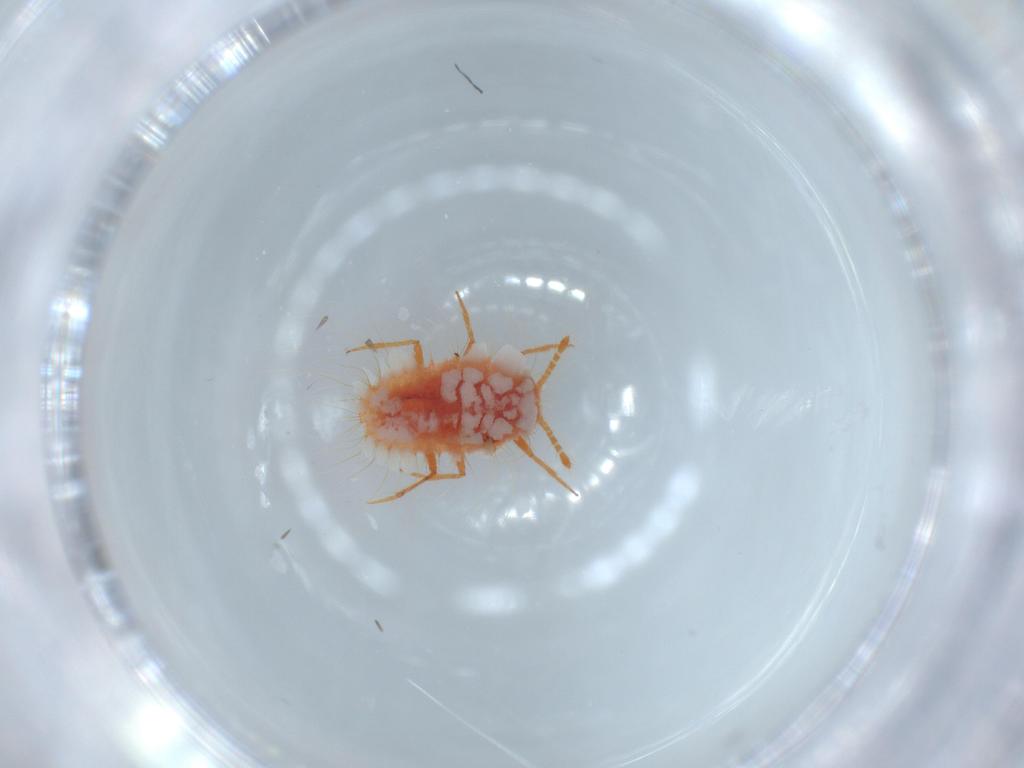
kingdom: Animalia
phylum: Arthropoda
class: Insecta
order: Hemiptera
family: Coccoidea_incertae_sedis
